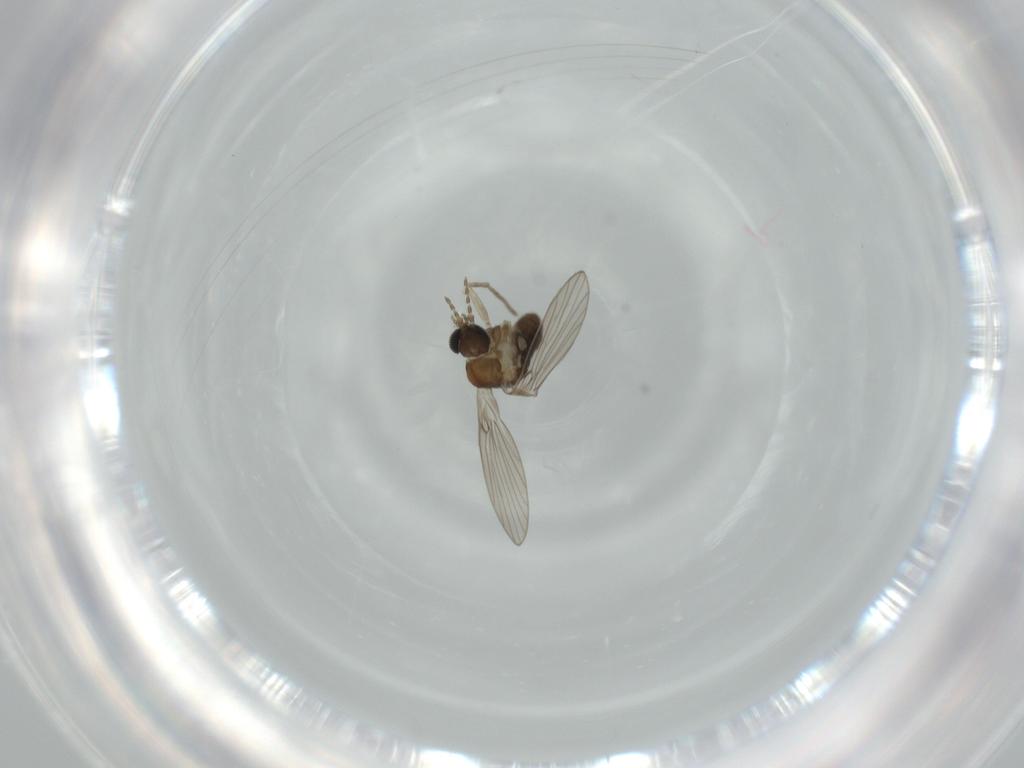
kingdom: Animalia
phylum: Arthropoda
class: Insecta
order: Diptera
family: Psychodidae
